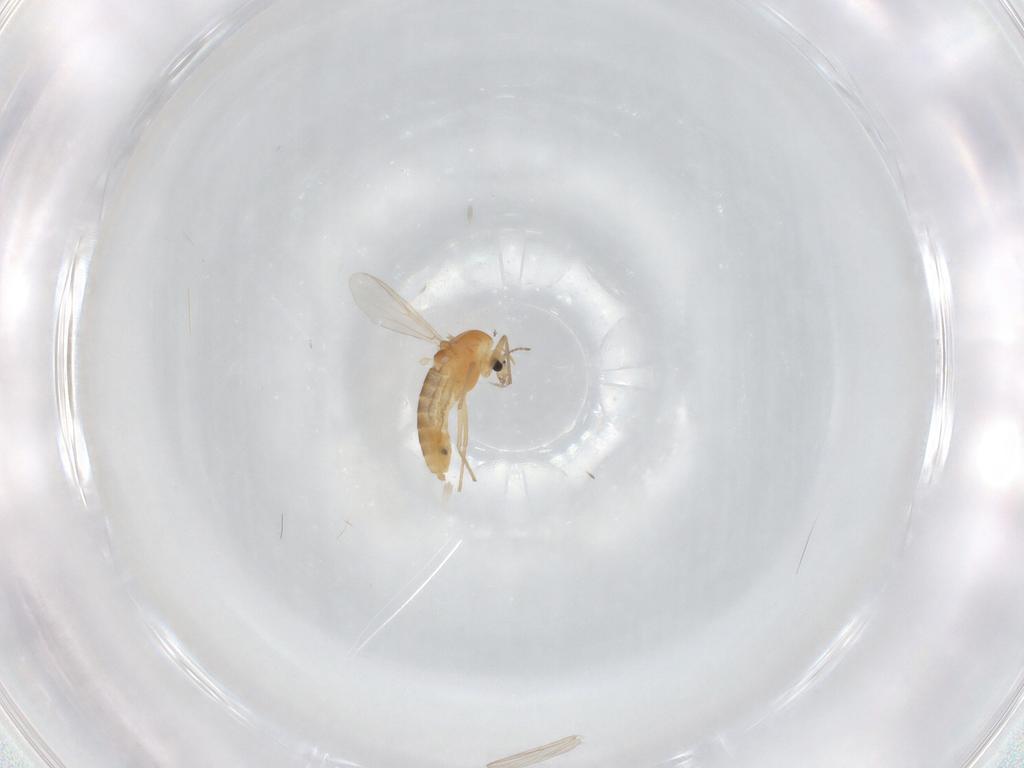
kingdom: Animalia
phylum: Arthropoda
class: Insecta
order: Diptera
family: Chironomidae
